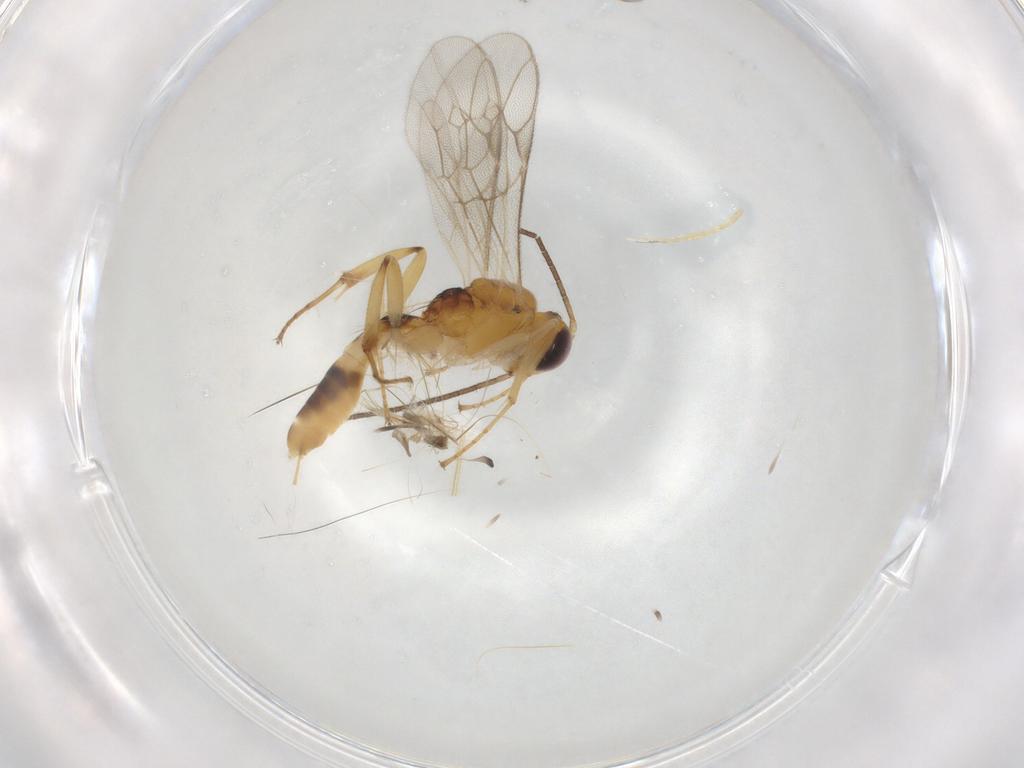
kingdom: Animalia
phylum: Arthropoda
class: Insecta
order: Hymenoptera
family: Ichneumonidae
